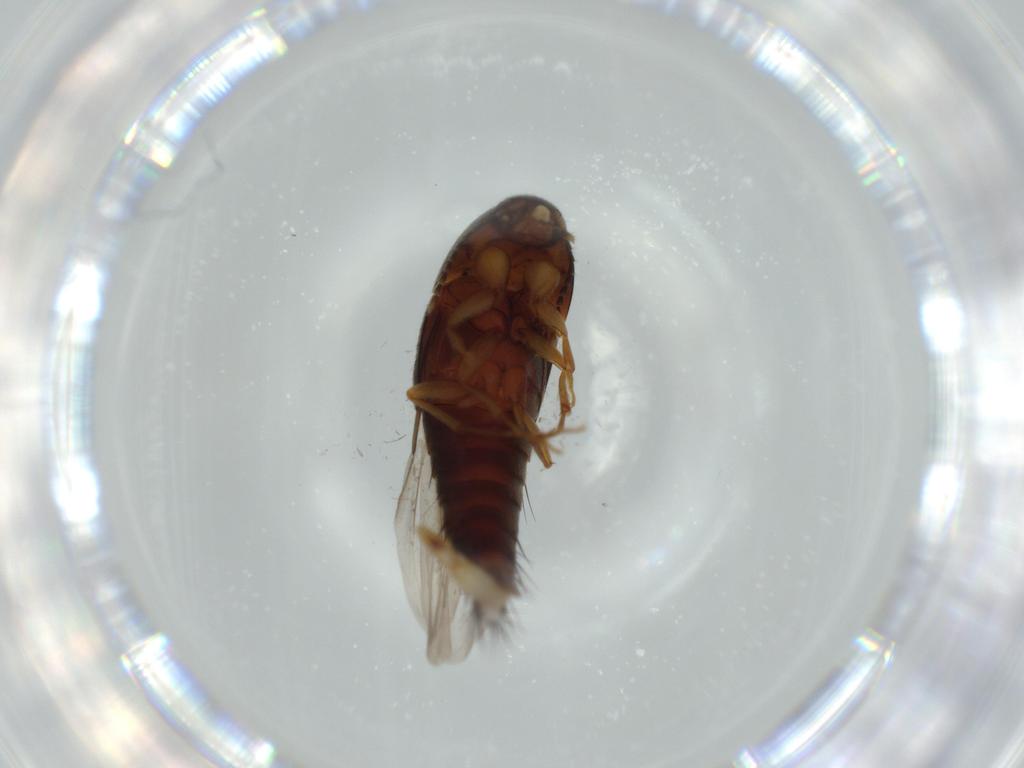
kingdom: Animalia
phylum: Arthropoda
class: Insecta
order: Coleoptera
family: Staphylinidae
